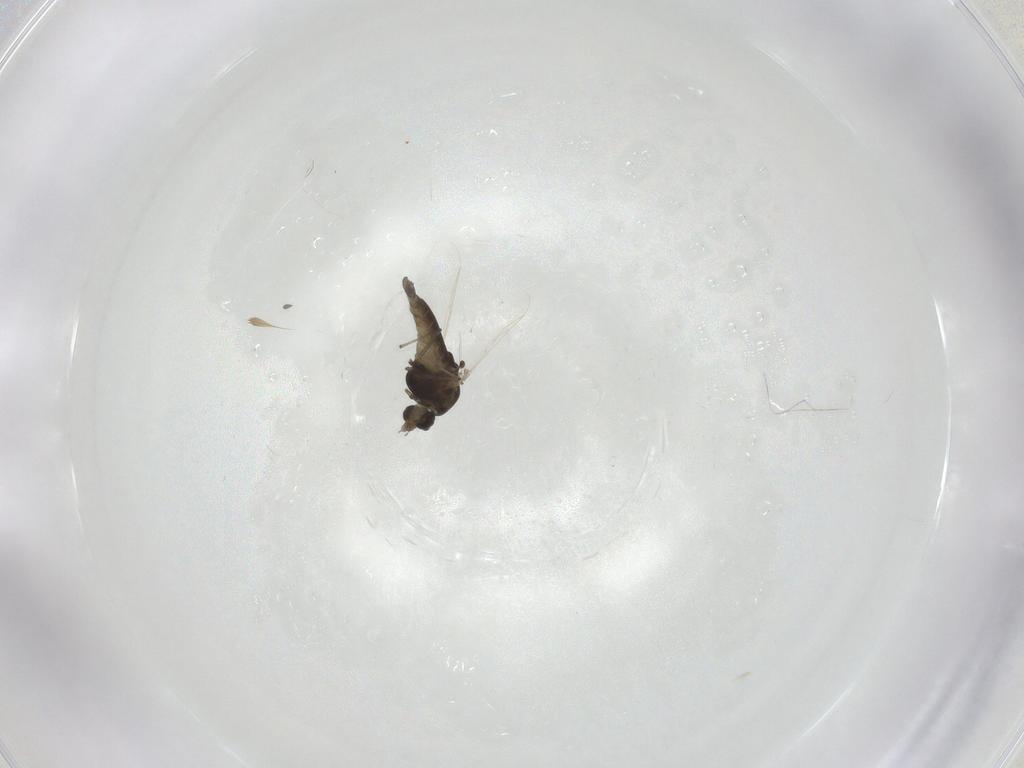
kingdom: Animalia
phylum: Arthropoda
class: Insecta
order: Diptera
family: Chironomidae
